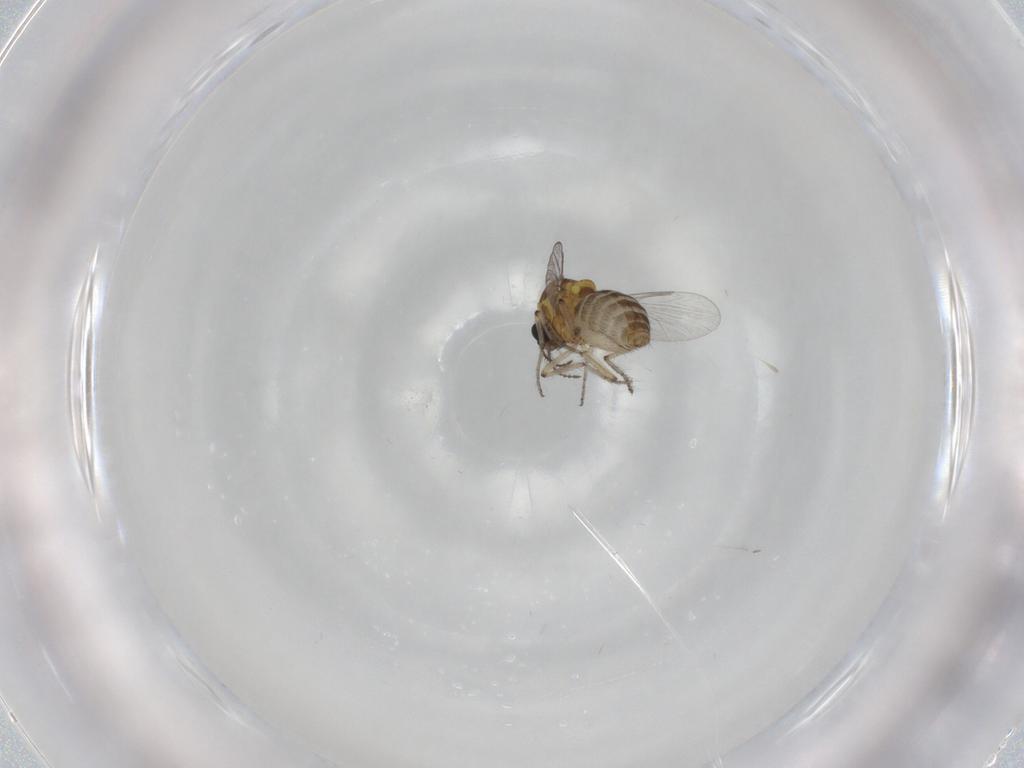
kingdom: Animalia
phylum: Arthropoda
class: Insecta
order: Diptera
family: Ceratopogonidae
